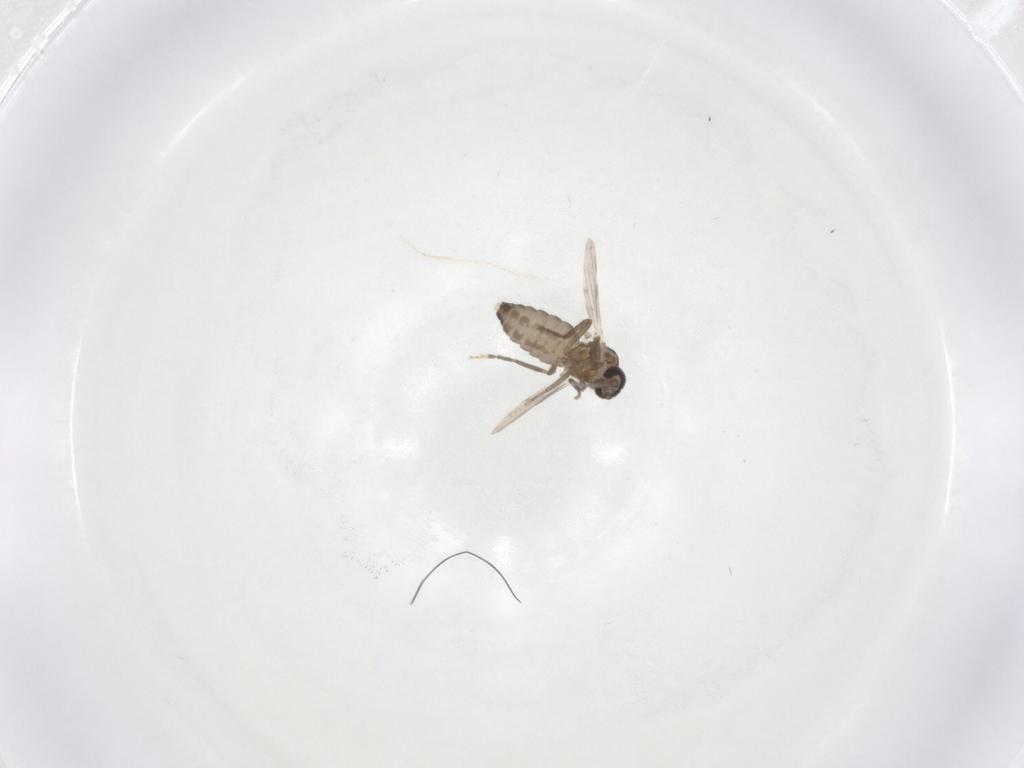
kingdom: Animalia
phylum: Arthropoda
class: Insecta
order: Diptera
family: Ceratopogonidae
